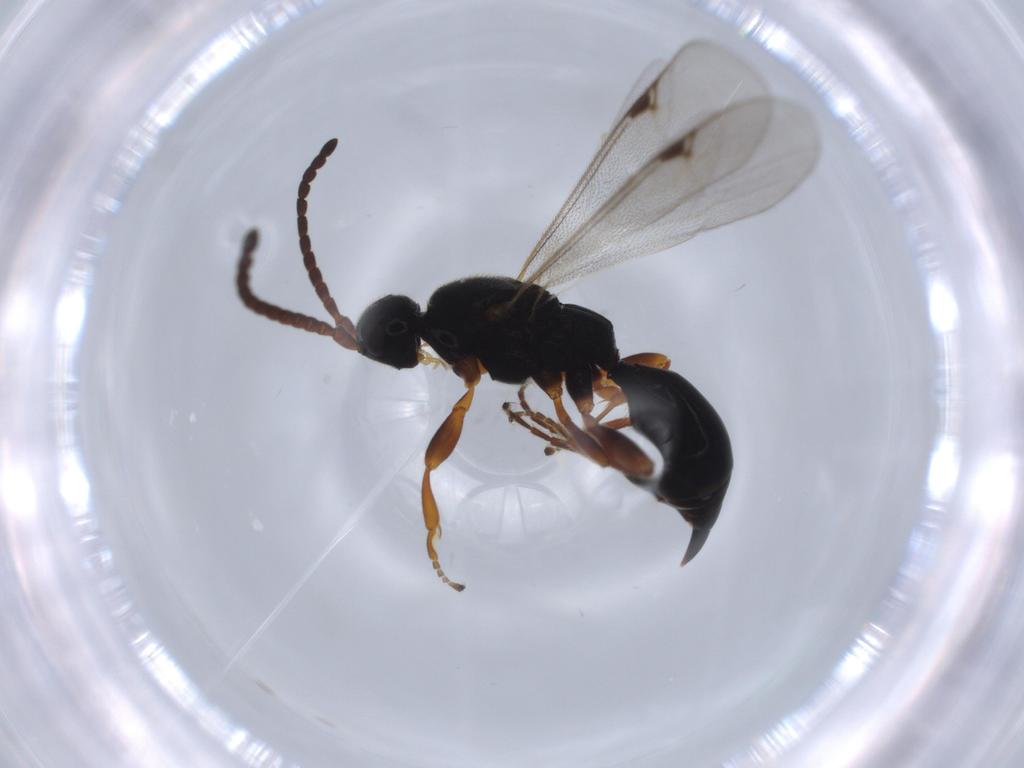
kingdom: Animalia
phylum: Arthropoda
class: Insecta
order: Hymenoptera
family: Proctotrupidae
